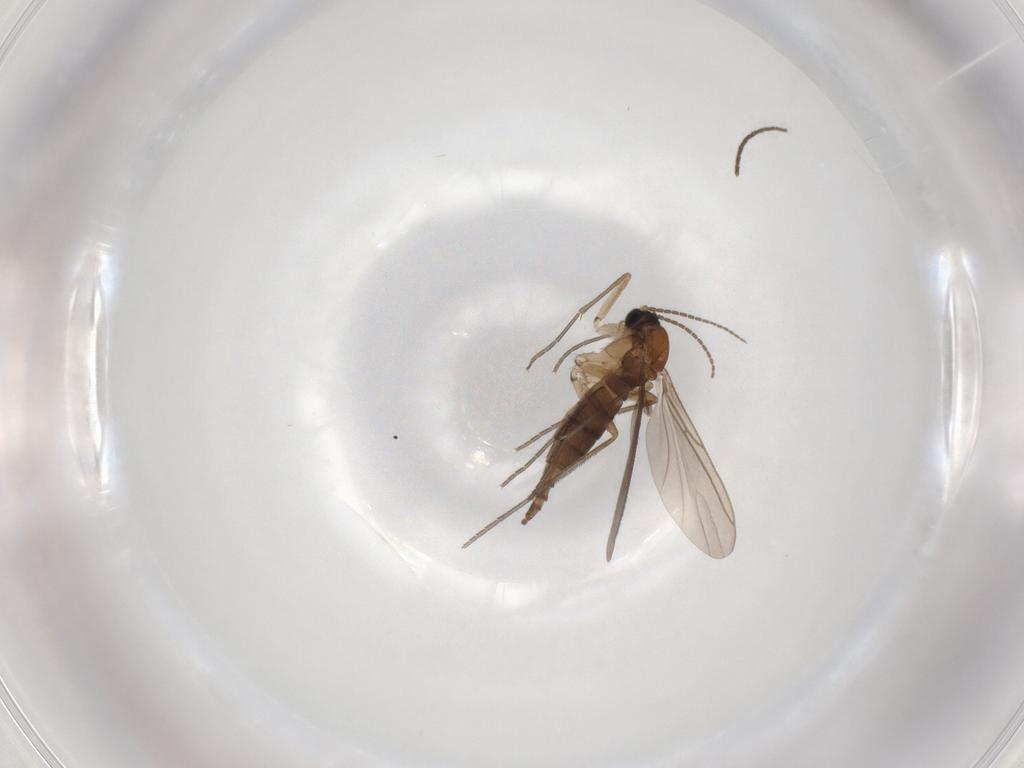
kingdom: Animalia
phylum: Arthropoda
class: Insecta
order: Diptera
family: Sciaridae
